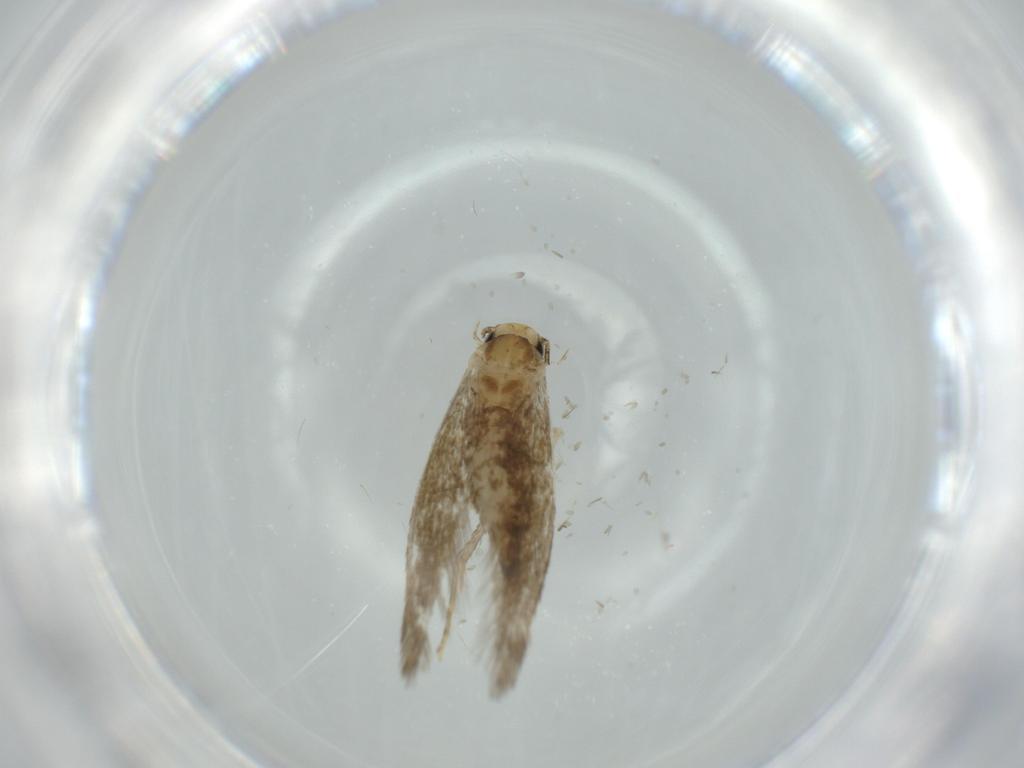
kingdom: Animalia
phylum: Arthropoda
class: Insecta
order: Lepidoptera
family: Tineidae
